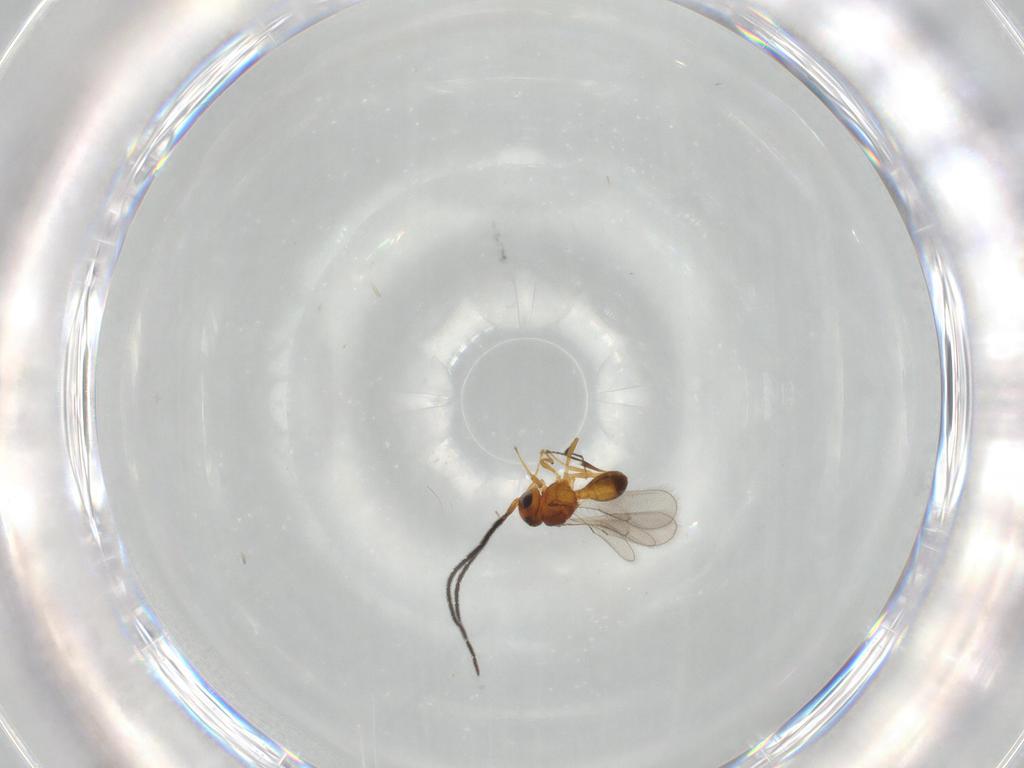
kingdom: Animalia
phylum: Arthropoda
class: Insecta
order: Hymenoptera
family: Scelionidae
